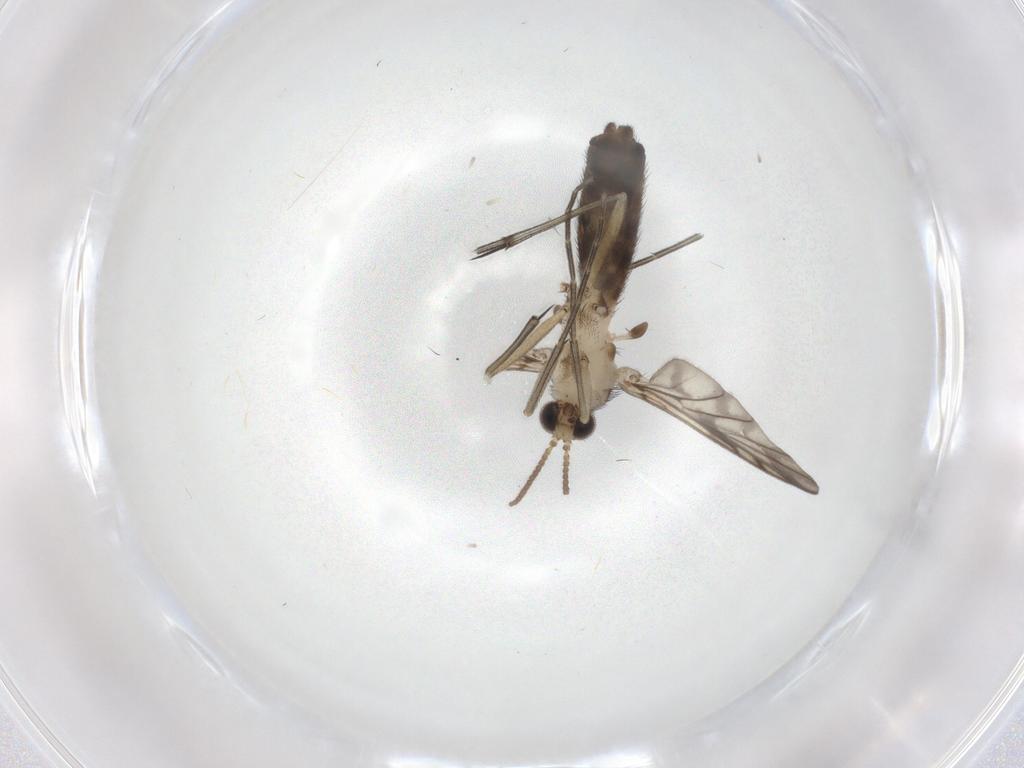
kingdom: Animalia
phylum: Arthropoda
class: Insecta
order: Diptera
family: Keroplatidae
